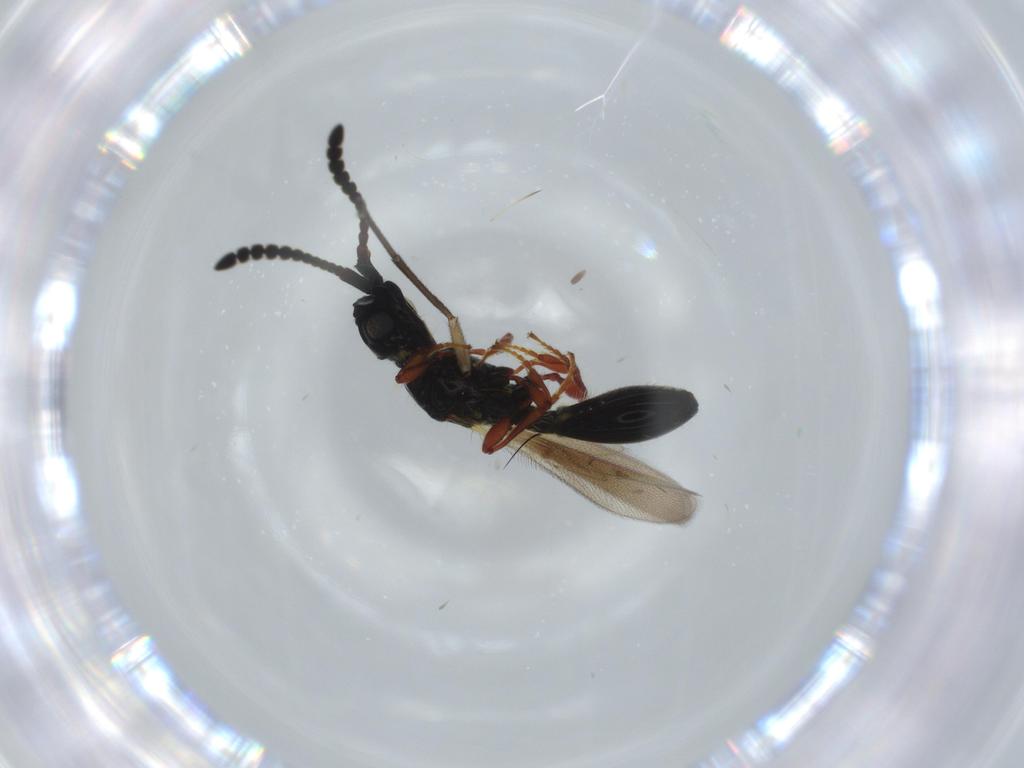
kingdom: Animalia
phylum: Arthropoda
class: Insecta
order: Hymenoptera
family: Diapriidae
